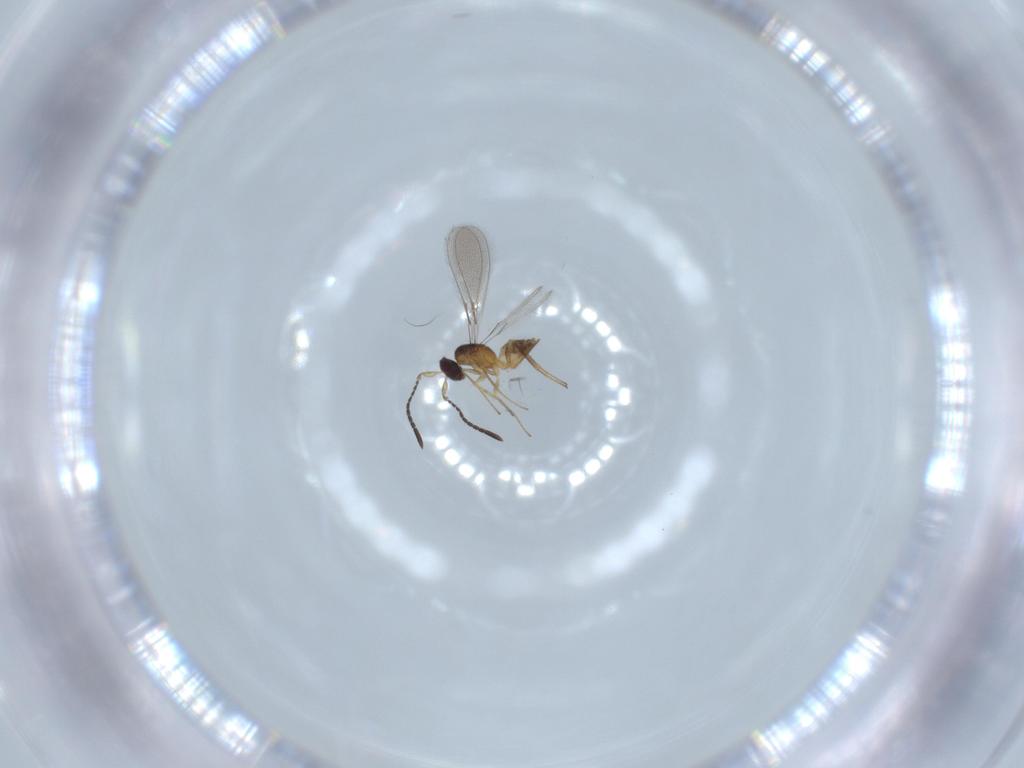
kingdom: Animalia
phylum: Arthropoda
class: Insecta
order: Hymenoptera
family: Mymaridae
